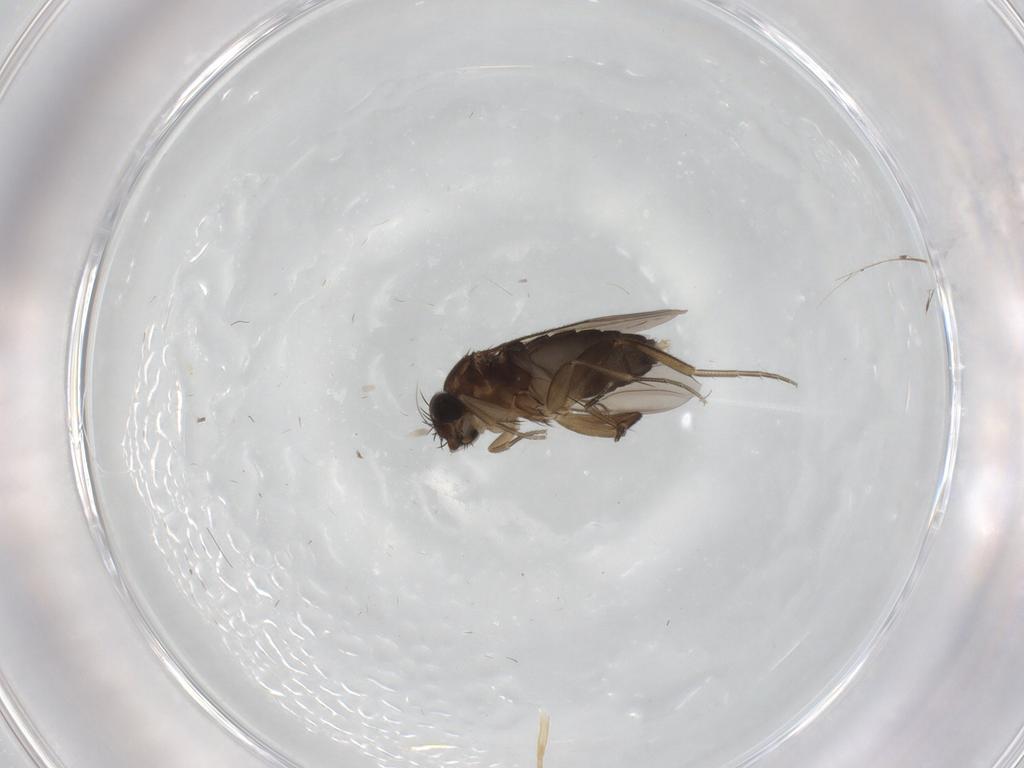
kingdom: Animalia
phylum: Arthropoda
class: Insecta
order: Diptera
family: Phoridae
